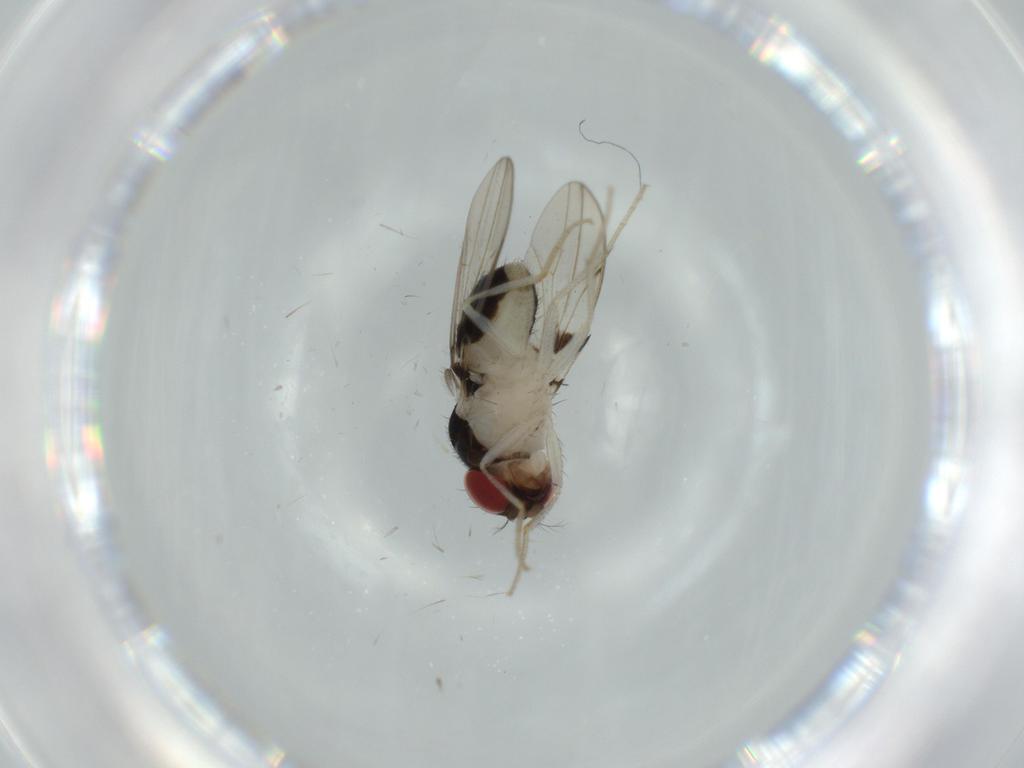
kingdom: Animalia
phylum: Arthropoda
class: Insecta
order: Diptera
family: Drosophilidae
